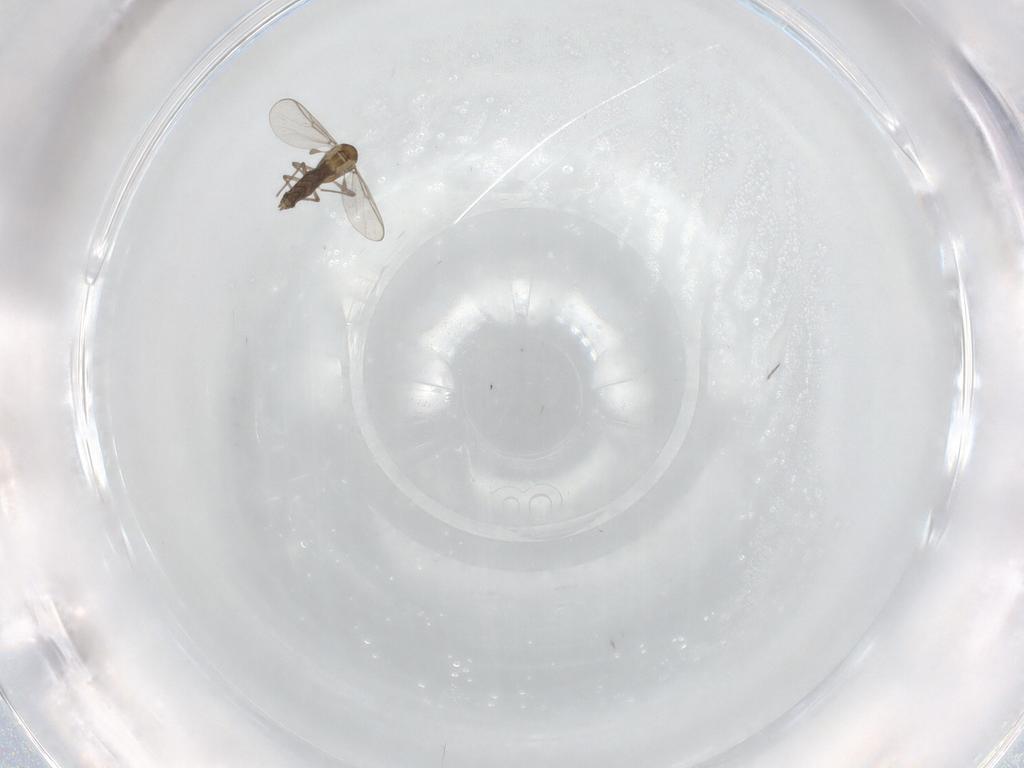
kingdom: Animalia
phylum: Arthropoda
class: Insecta
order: Diptera
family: Chironomidae
